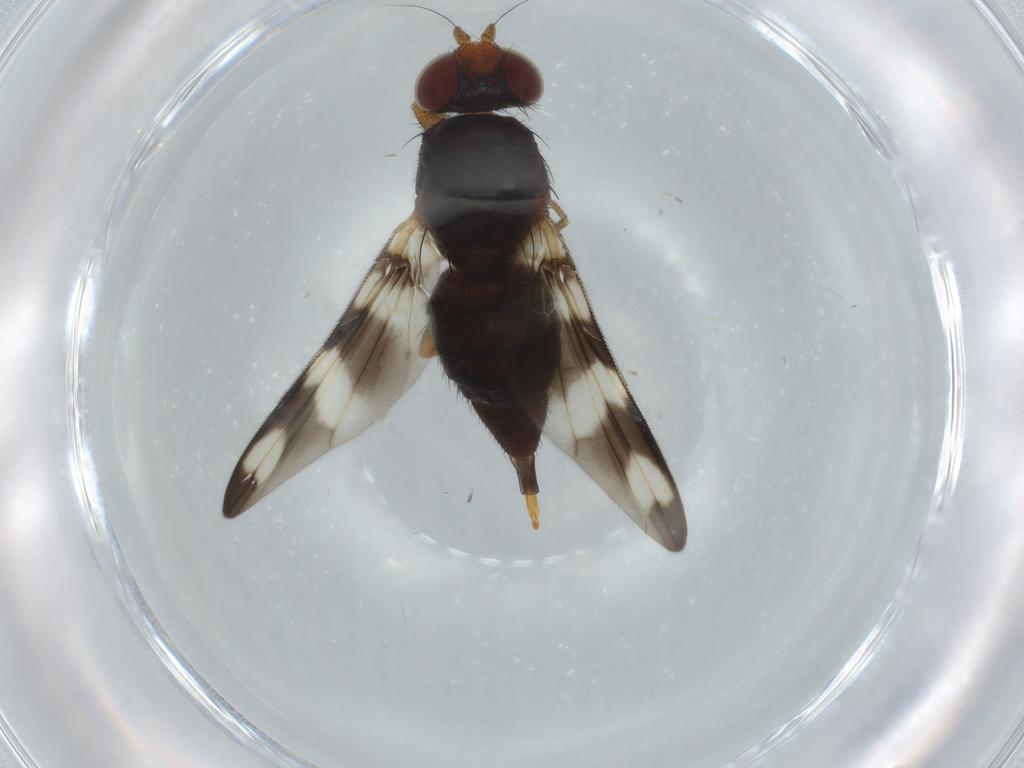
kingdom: Animalia
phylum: Arthropoda
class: Insecta
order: Diptera
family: Ulidiidae
